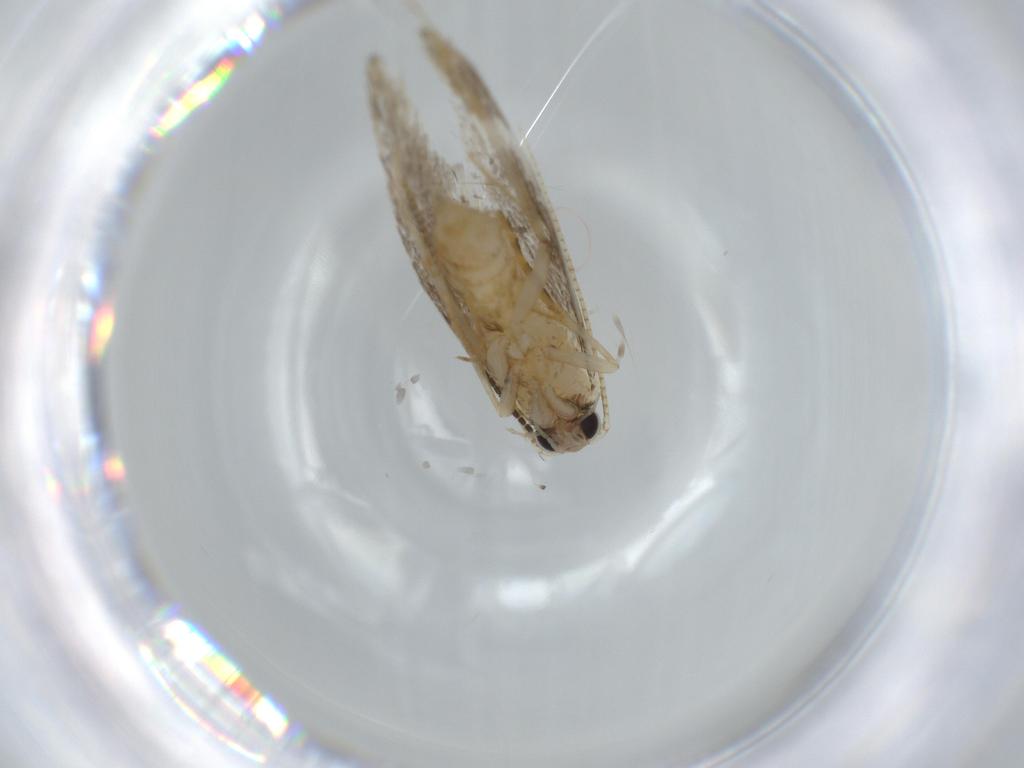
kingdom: Animalia
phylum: Arthropoda
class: Insecta
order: Lepidoptera
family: Tineidae
